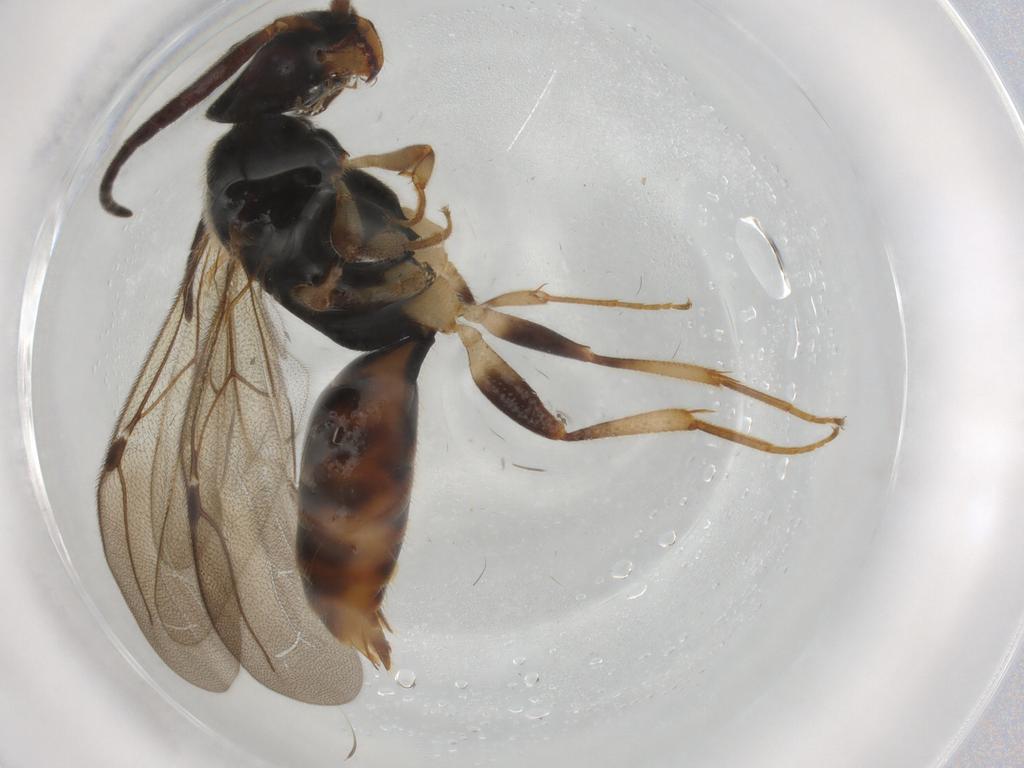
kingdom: Animalia
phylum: Arthropoda
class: Insecta
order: Hymenoptera
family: Bethylidae
